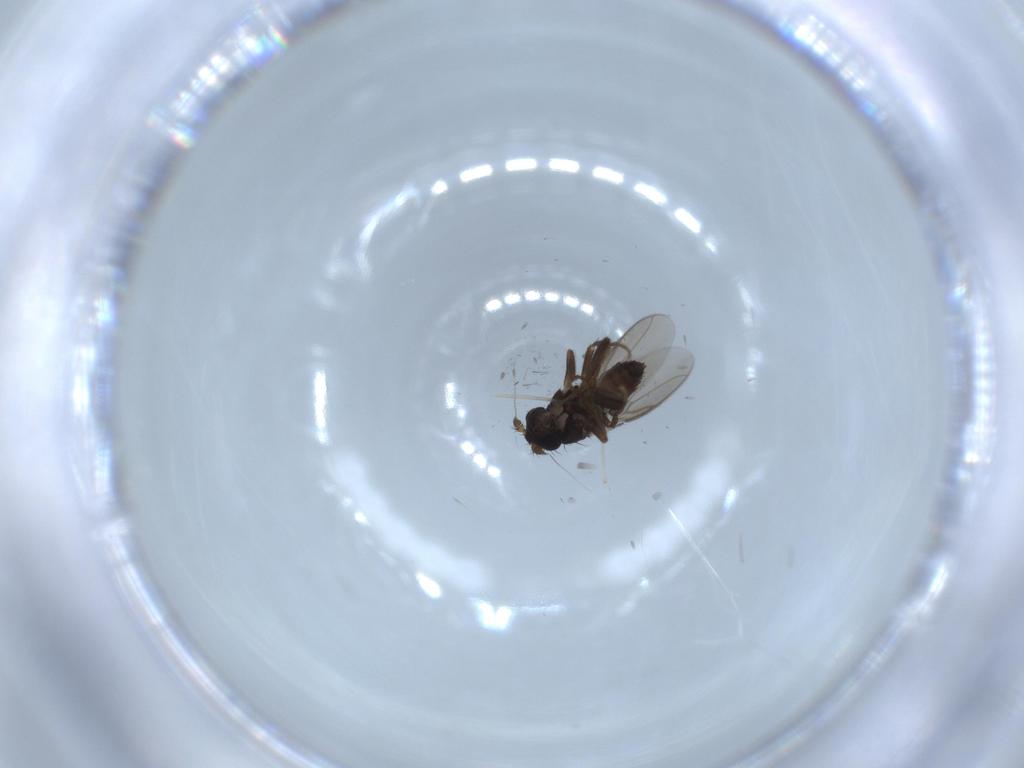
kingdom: Animalia
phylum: Arthropoda
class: Insecta
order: Diptera
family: Sphaeroceridae
